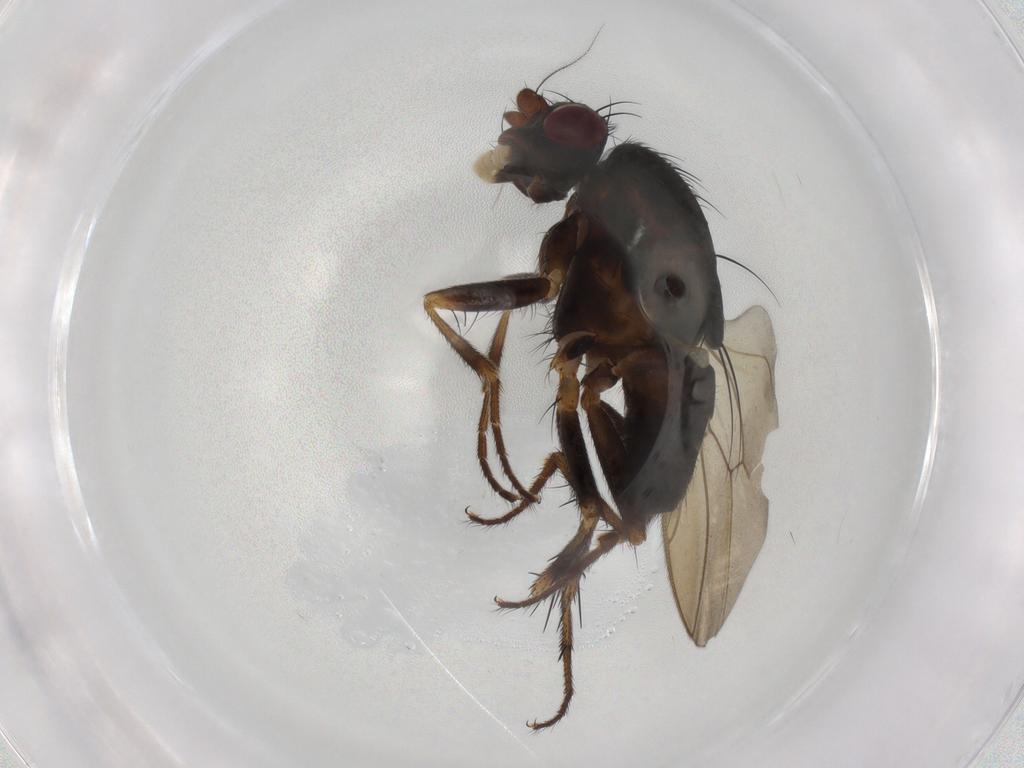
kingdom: Animalia
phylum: Arthropoda
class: Insecta
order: Diptera
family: Sphaeroceridae
